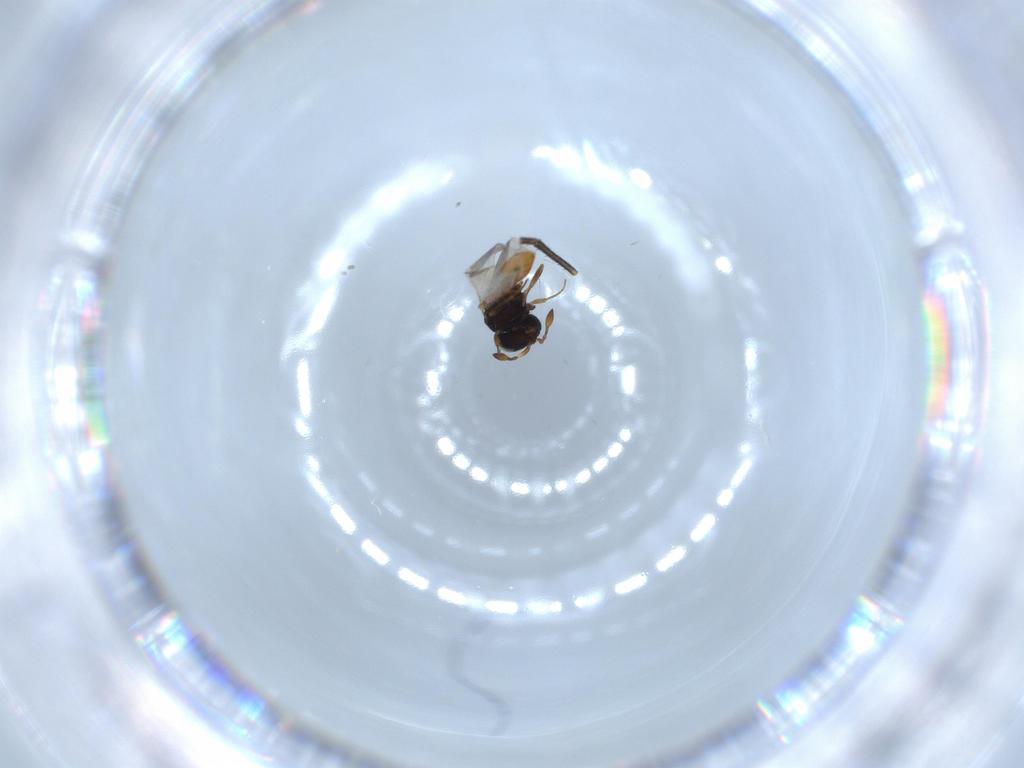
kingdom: Animalia
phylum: Arthropoda
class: Insecta
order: Hymenoptera
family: Scelionidae
